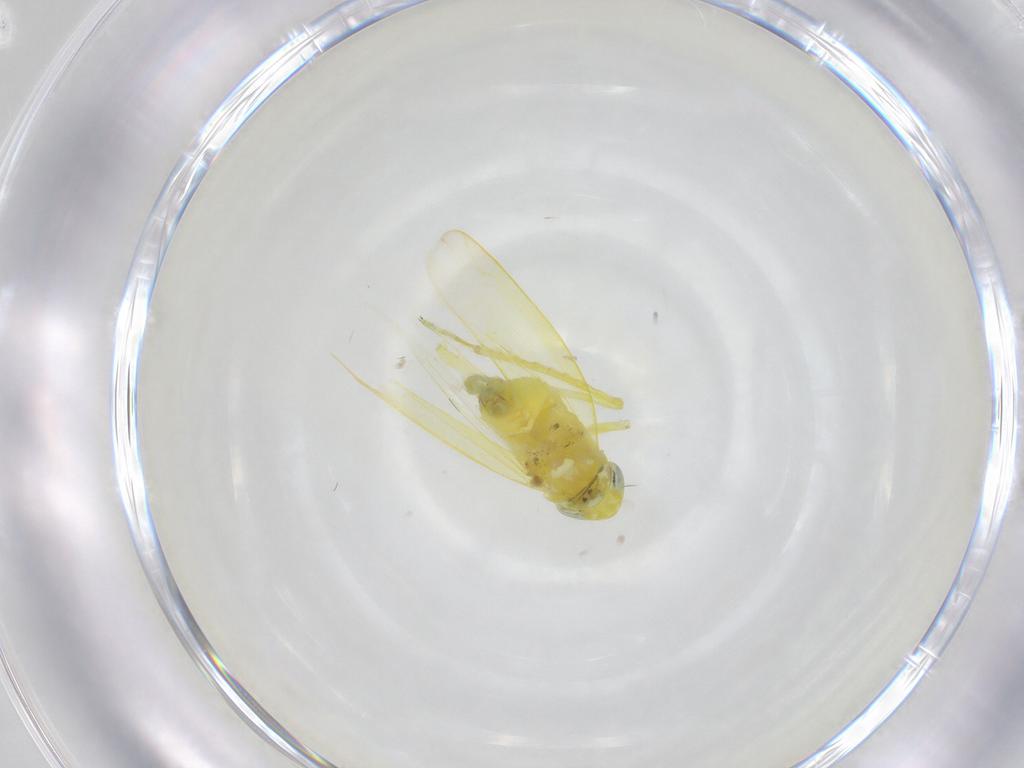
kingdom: Animalia
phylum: Arthropoda
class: Insecta
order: Hemiptera
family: Cicadellidae
